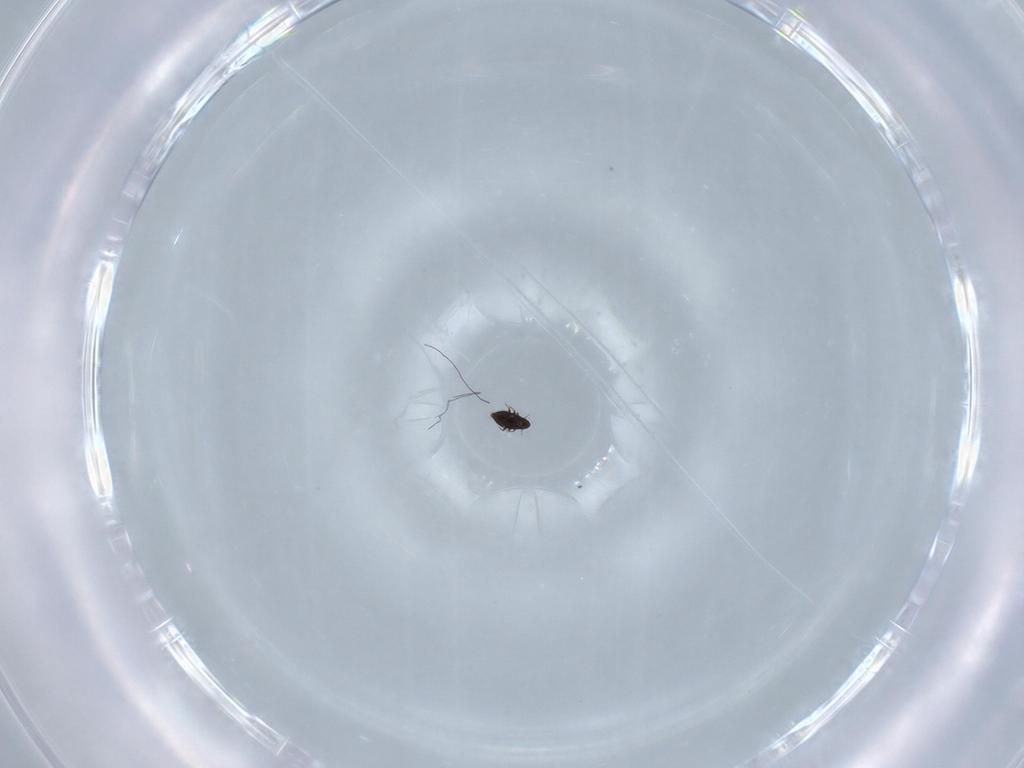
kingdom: Animalia
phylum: Arthropoda
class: Insecta
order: Coleoptera
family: Ripiphoridae
